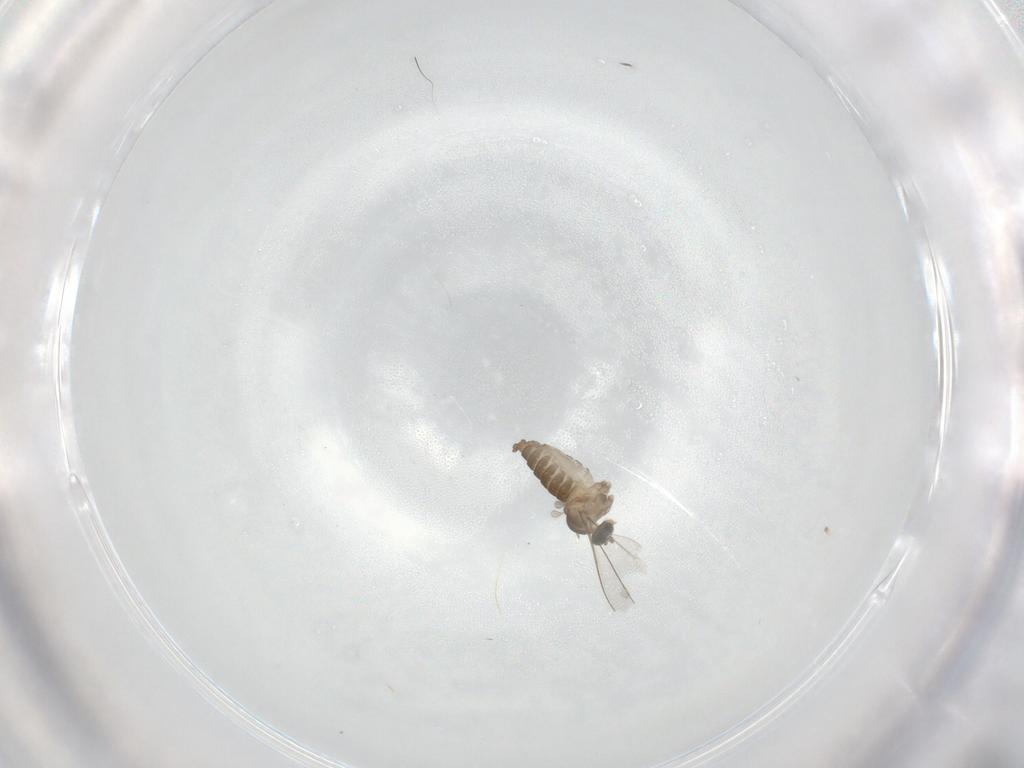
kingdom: Animalia
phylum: Arthropoda
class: Insecta
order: Diptera
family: Cecidomyiidae
